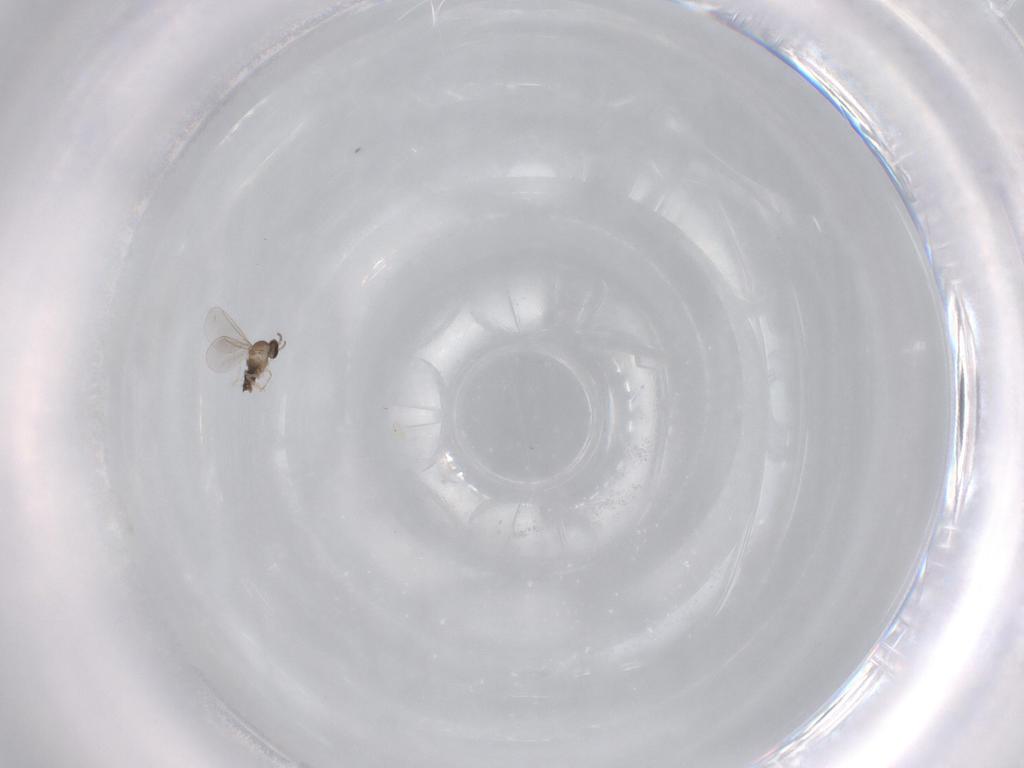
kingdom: Animalia
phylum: Arthropoda
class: Insecta
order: Diptera
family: Cecidomyiidae
